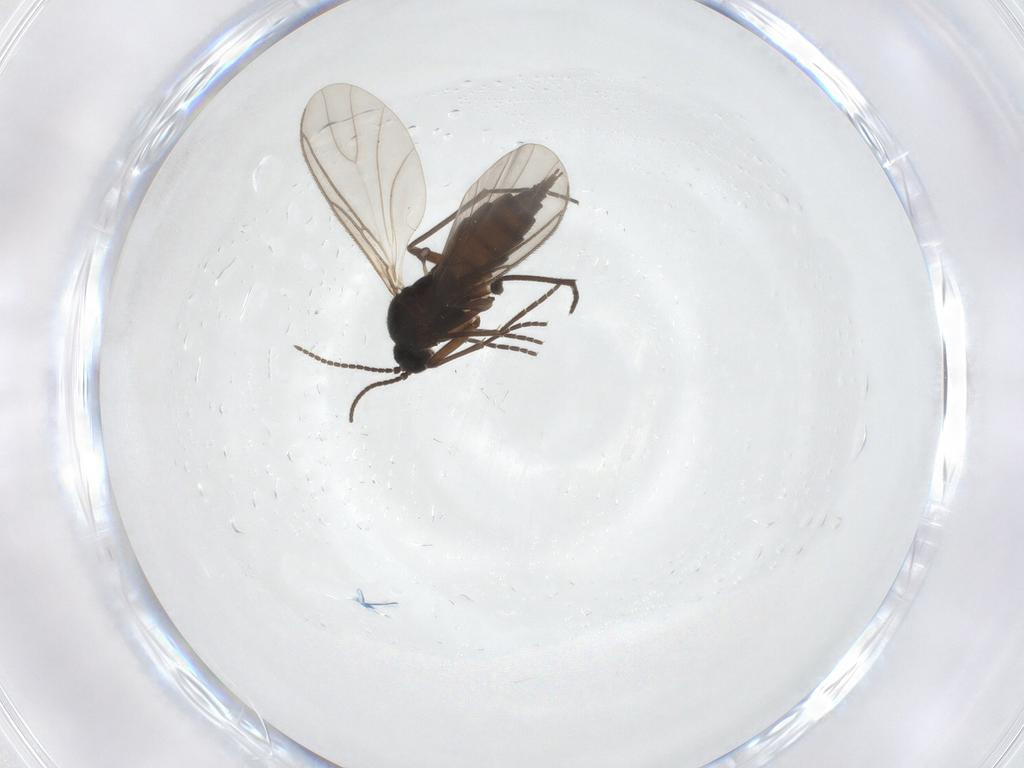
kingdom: Animalia
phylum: Arthropoda
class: Insecta
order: Diptera
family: Sciaridae
